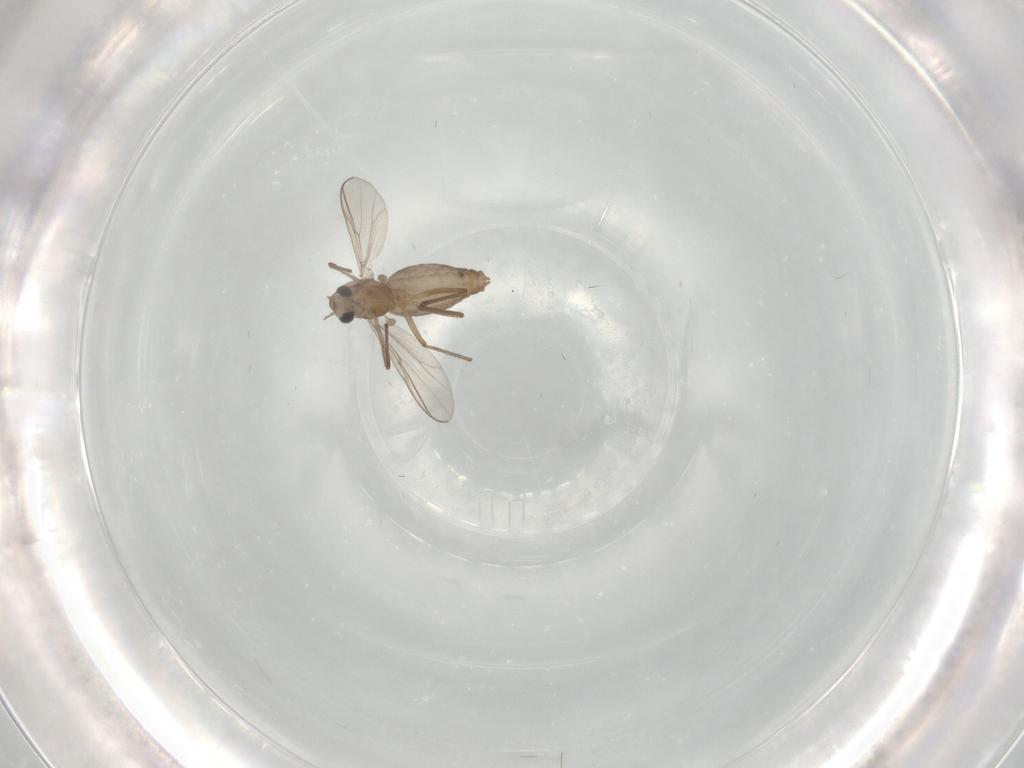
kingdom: Animalia
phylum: Arthropoda
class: Insecta
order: Diptera
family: Chironomidae
